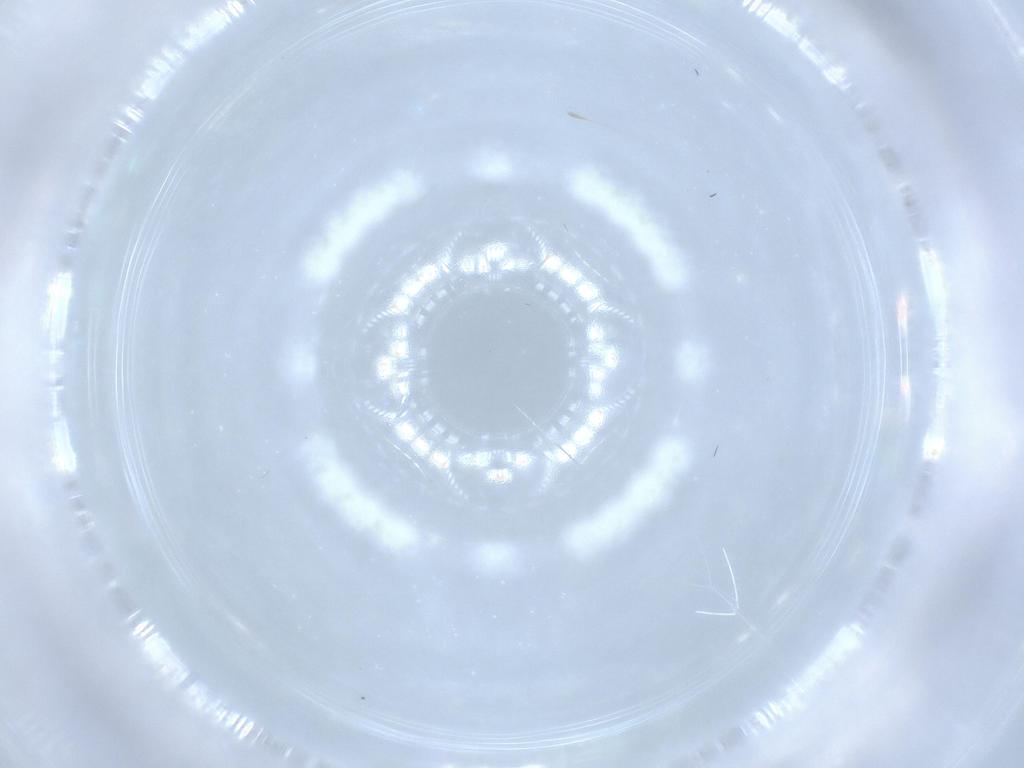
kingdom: Animalia
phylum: Arthropoda
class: Insecta
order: Diptera
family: Psychodidae
